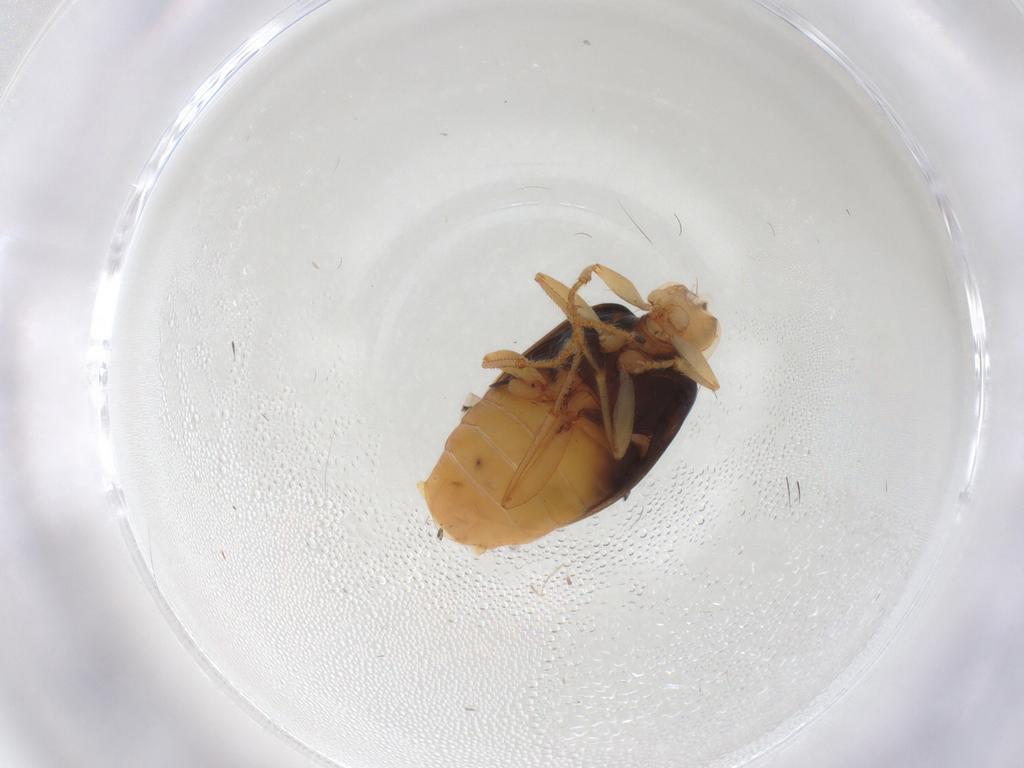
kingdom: Animalia
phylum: Arthropoda
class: Insecta
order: Coleoptera
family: Carabidae
